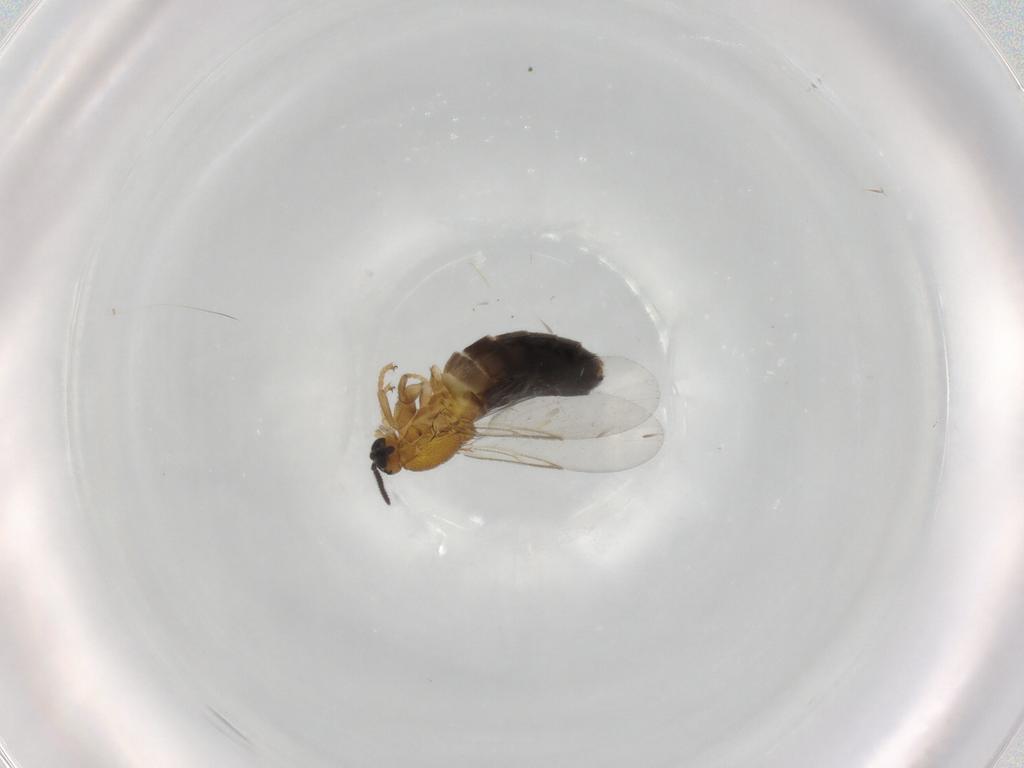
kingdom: Animalia
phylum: Arthropoda
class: Insecta
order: Diptera
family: Scatopsidae
